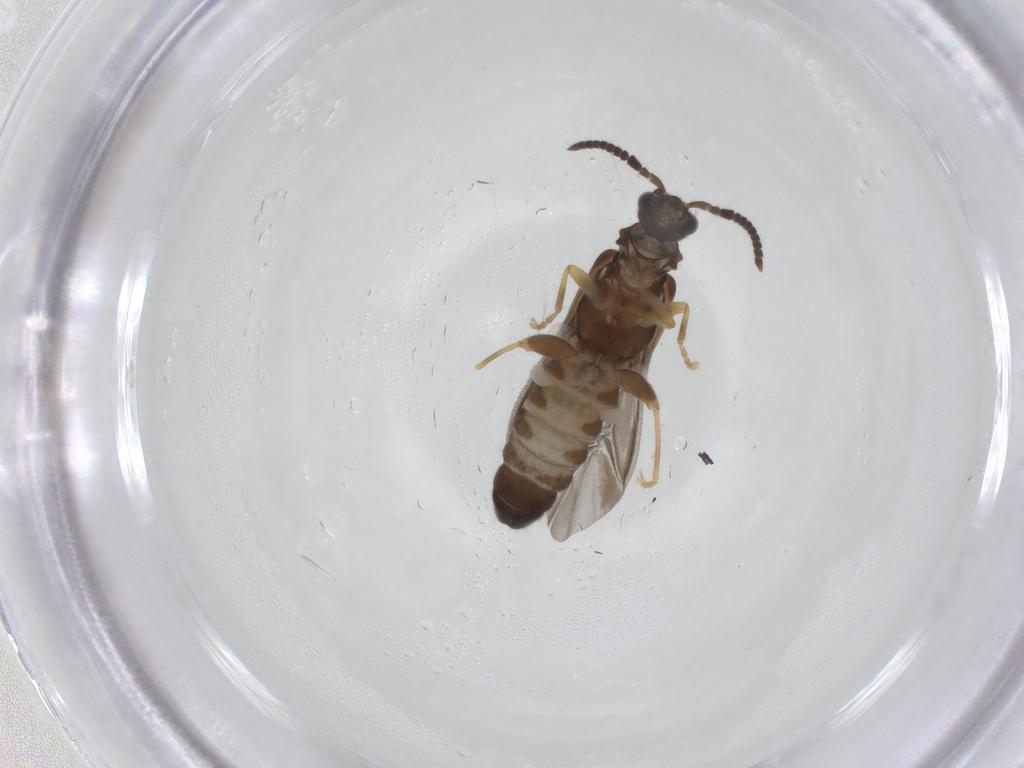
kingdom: Animalia
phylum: Arthropoda
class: Insecta
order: Coleoptera
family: Cantharidae
